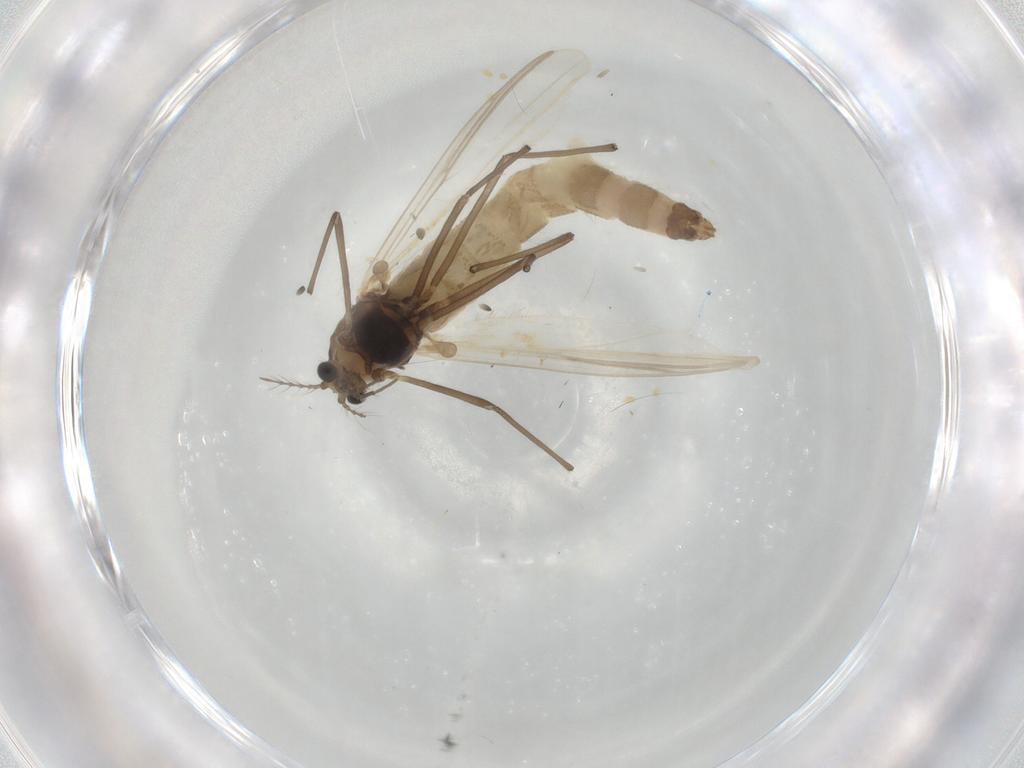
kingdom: Animalia
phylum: Arthropoda
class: Insecta
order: Diptera
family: Chironomidae
